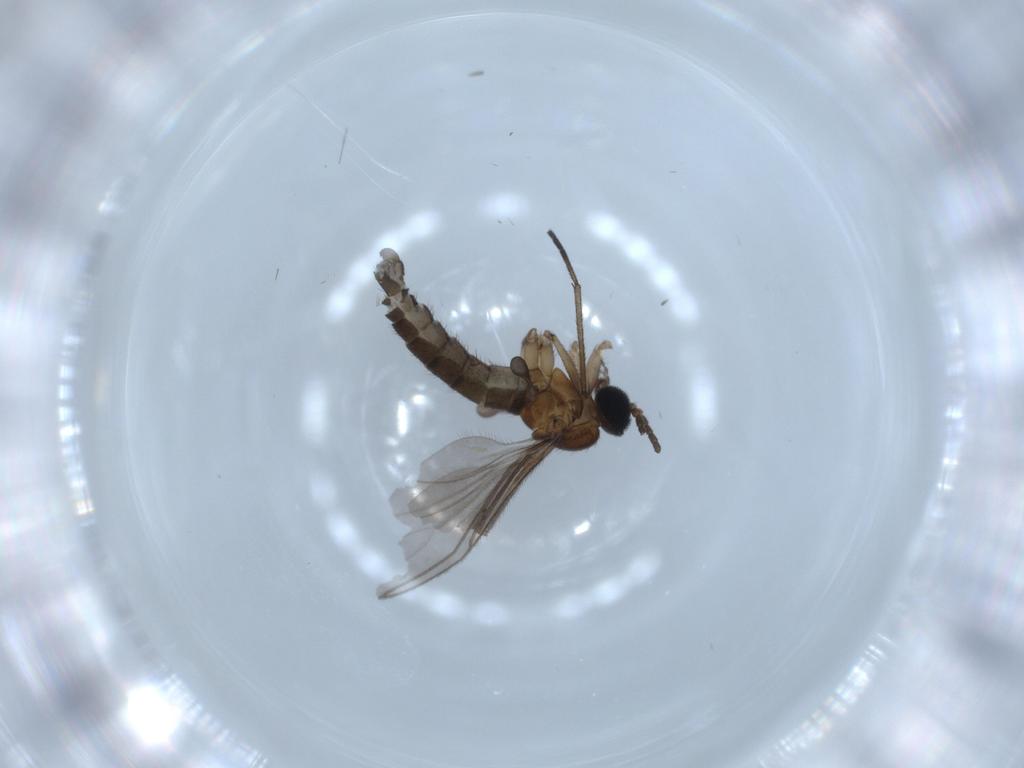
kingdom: Animalia
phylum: Arthropoda
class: Insecta
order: Diptera
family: Sciaridae
